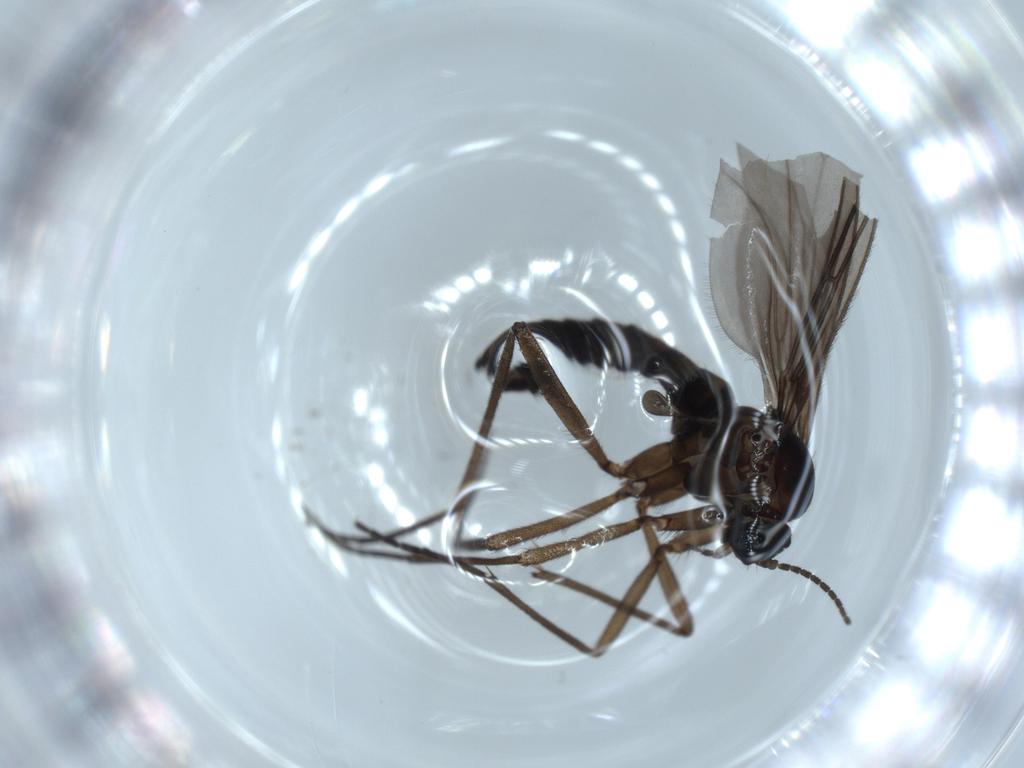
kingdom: Animalia
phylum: Arthropoda
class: Insecta
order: Diptera
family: Sciaridae
